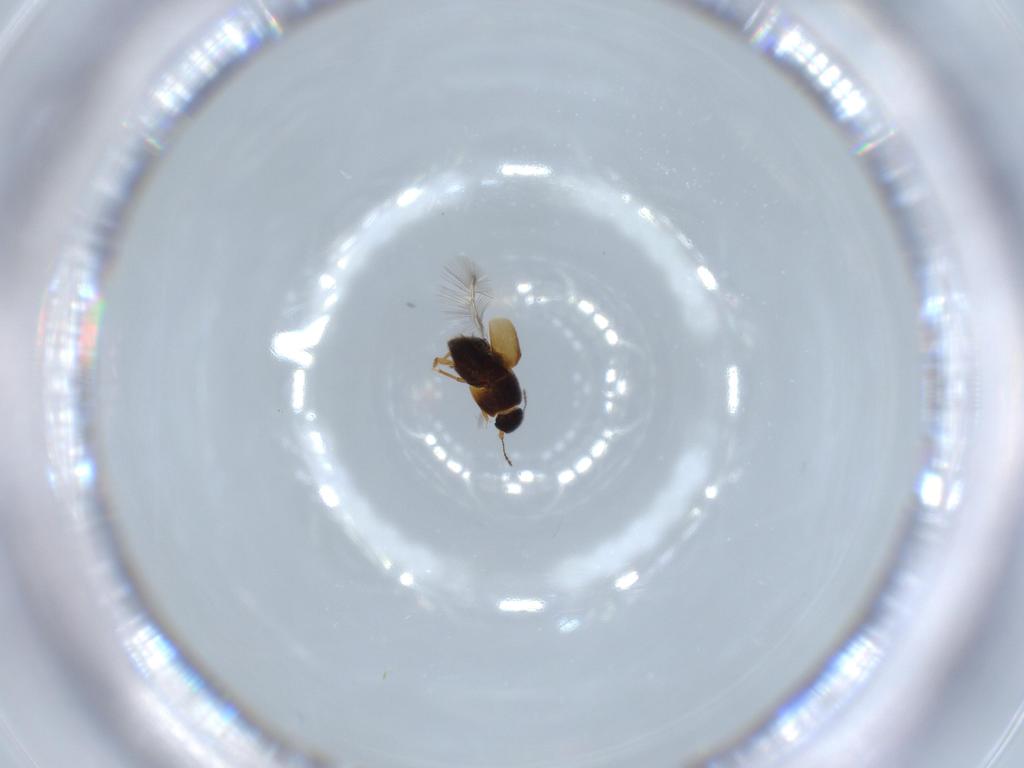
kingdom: Animalia
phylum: Arthropoda
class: Insecta
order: Coleoptera
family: Ptiliidae
